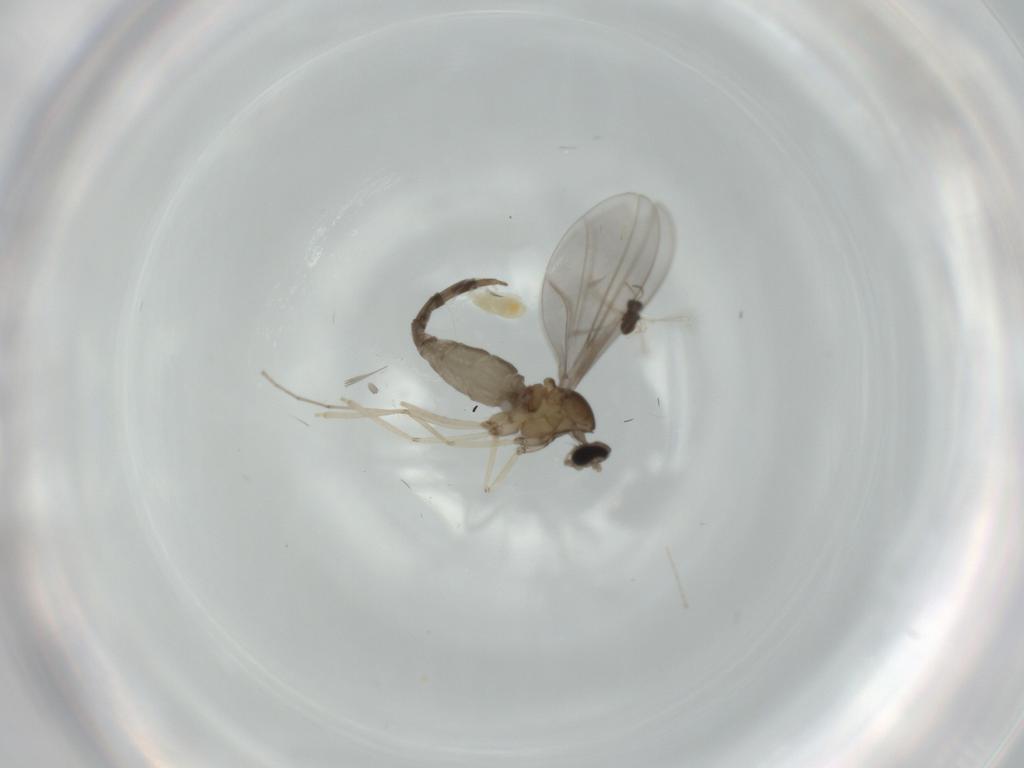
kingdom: Animalia
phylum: Arthropoda
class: Insecta
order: Diptera
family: Cecidomyiidae
